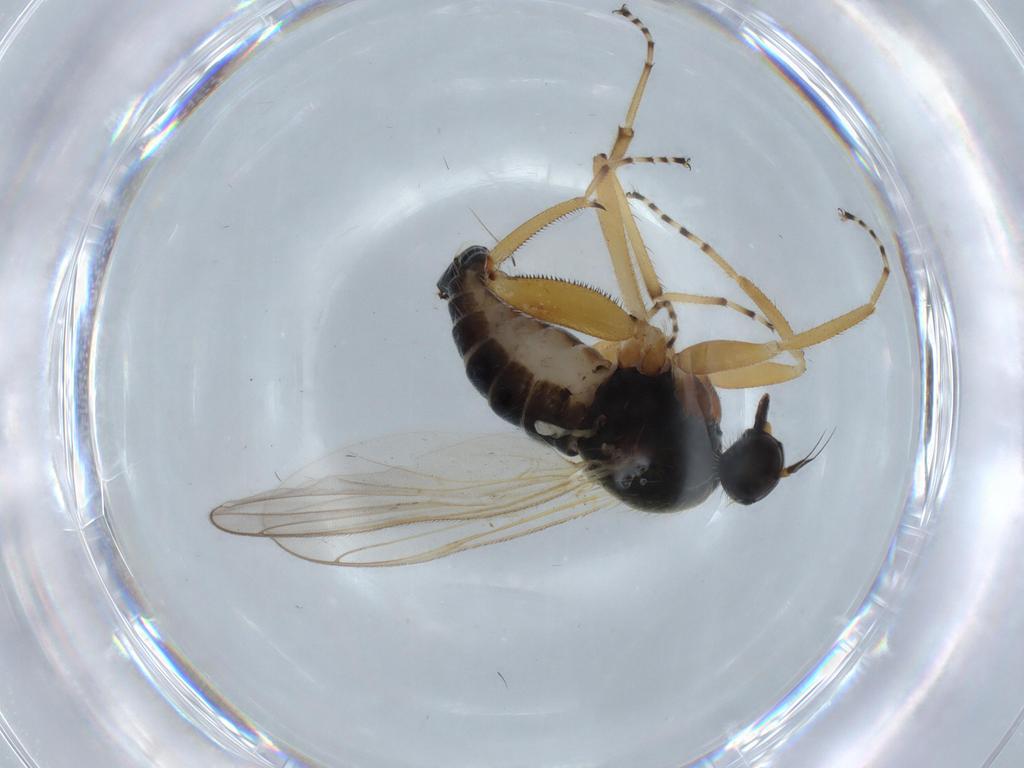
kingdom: Animalia
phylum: Arthropoda
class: Insecta
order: Diptera
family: Hybotidae
